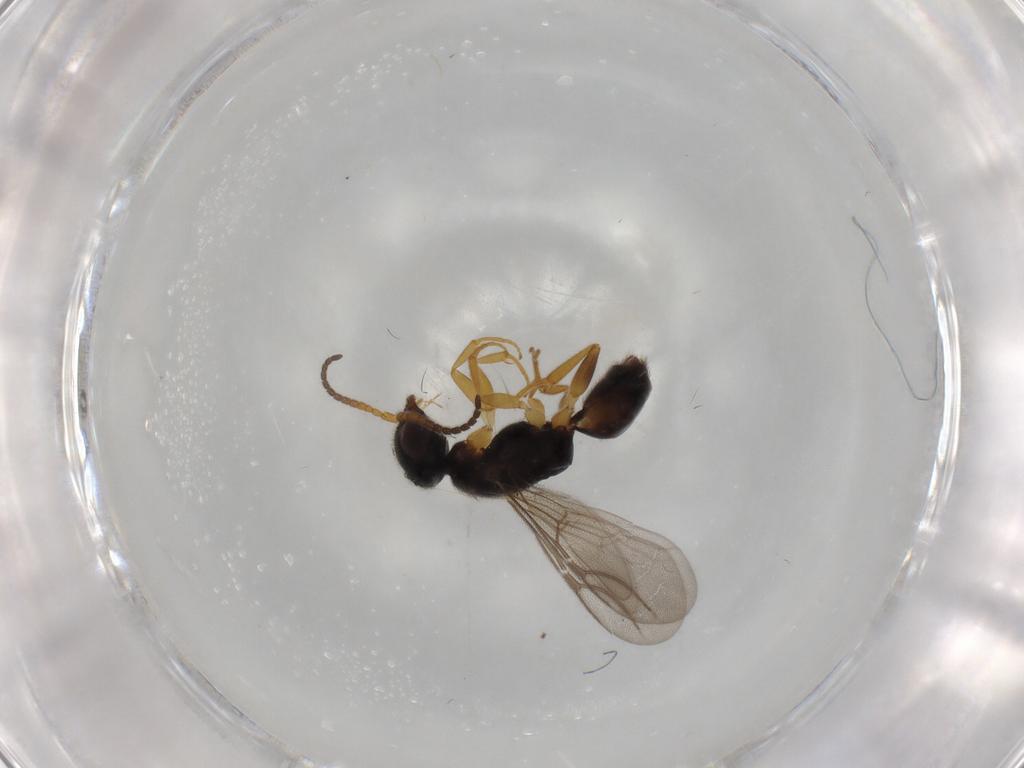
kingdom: Animalia
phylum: Arthropoda
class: Insecta
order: Hymenoptera
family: Bethylidae
